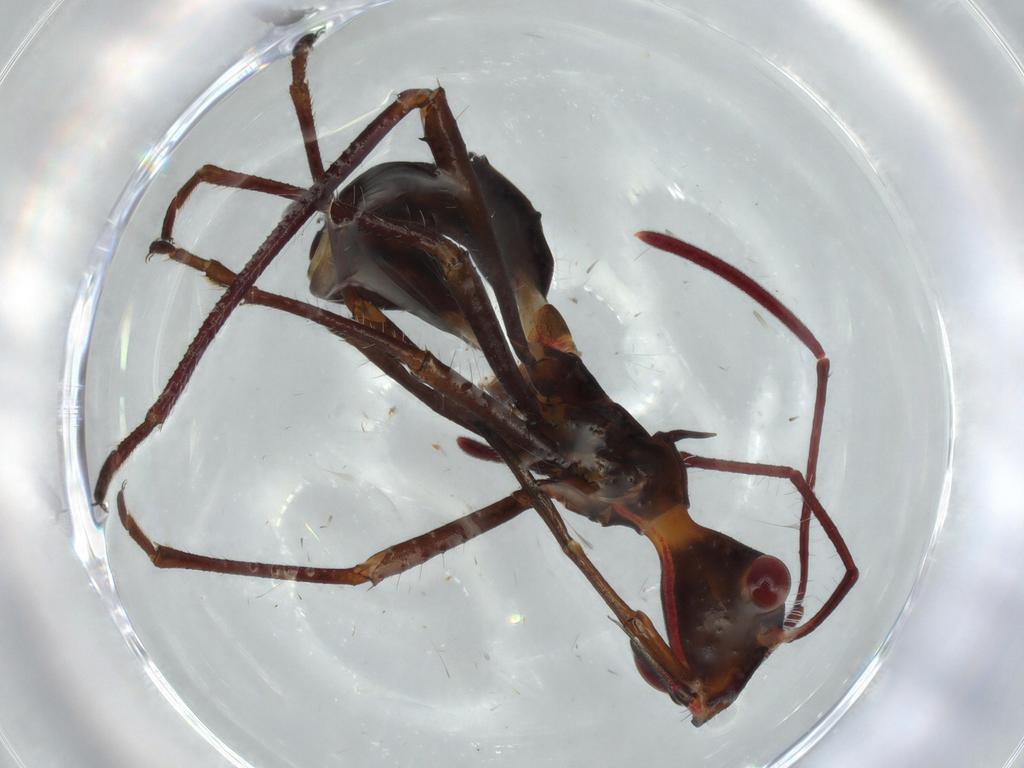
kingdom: Animalia
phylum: Arthropoda
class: Insecta
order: Hemiptera
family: Alydidae
